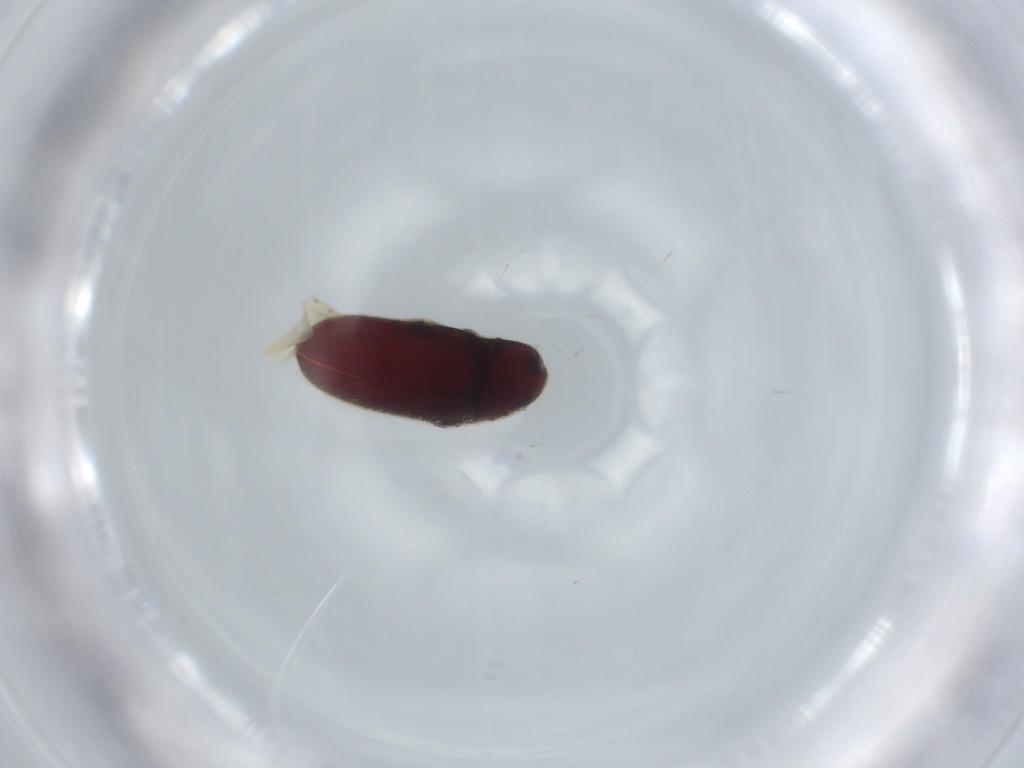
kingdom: Animalia
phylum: Arthropoda
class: Insecta
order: Coleoptera
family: Throscidae
